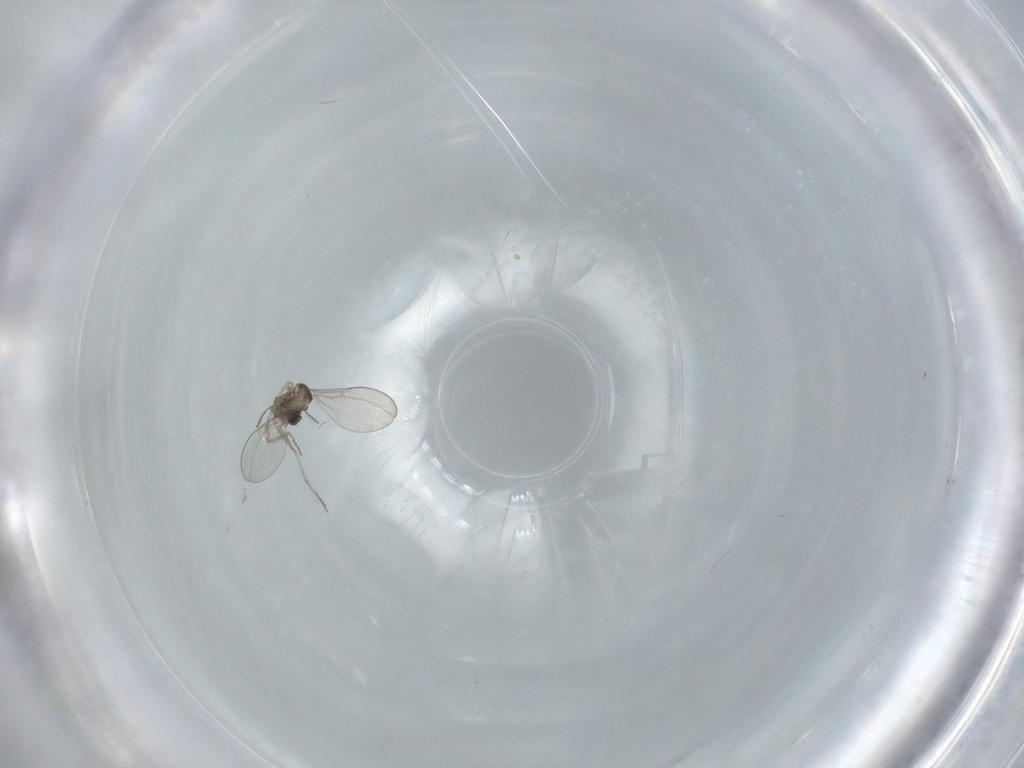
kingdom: Animalia
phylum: Arthropoda
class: Insecta
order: Diptera
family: Cecidomyiidae
